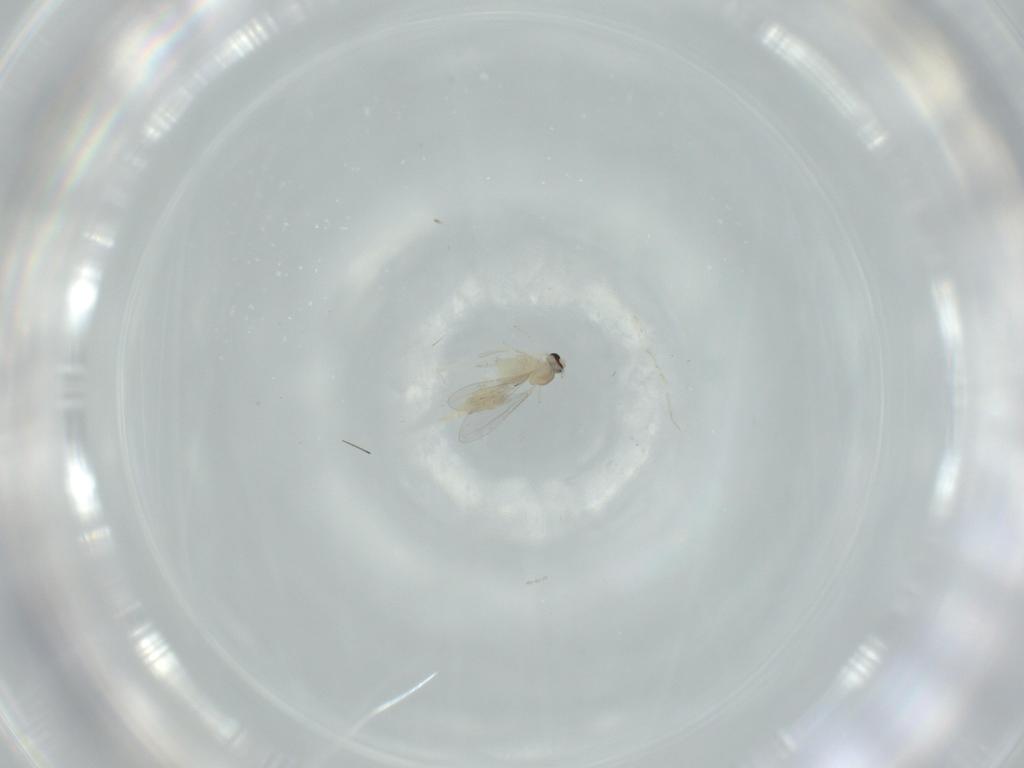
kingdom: Animalia
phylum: Arthropoda
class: Insecta
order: Diptera
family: Cecidomyiidae
